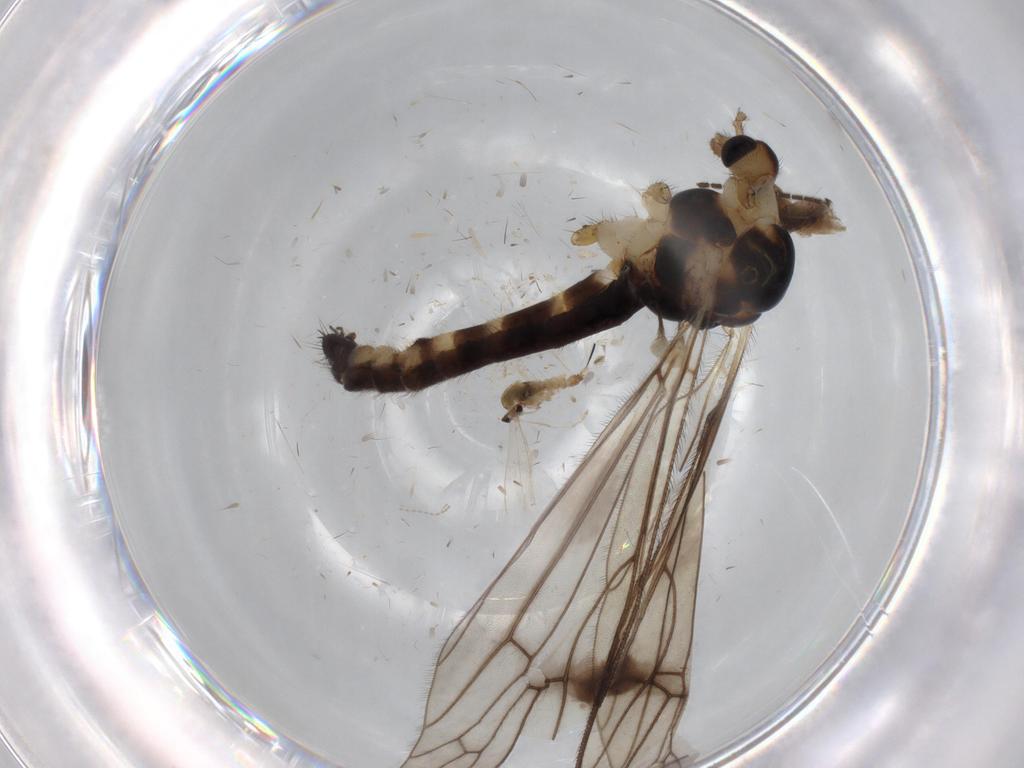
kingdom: Animalia
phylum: Arthropoda
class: Insecta
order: Diptera
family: Limoniidae
